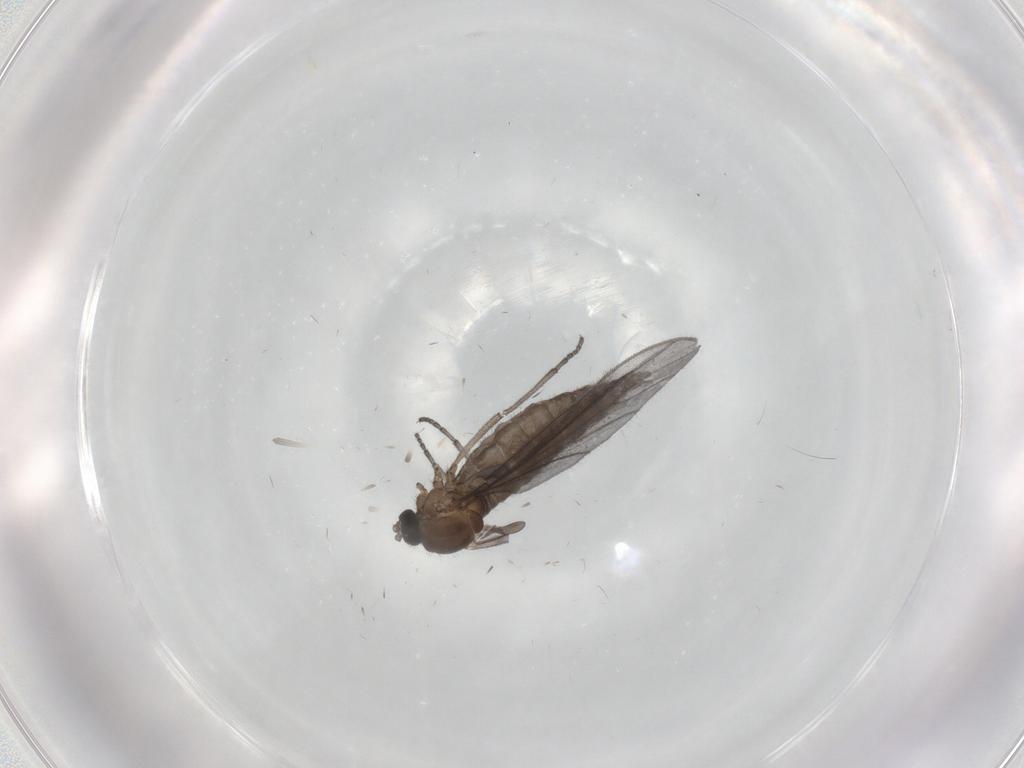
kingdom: Animalia
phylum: Arthropoda
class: Insecta
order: Diptera
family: Sciaridae
